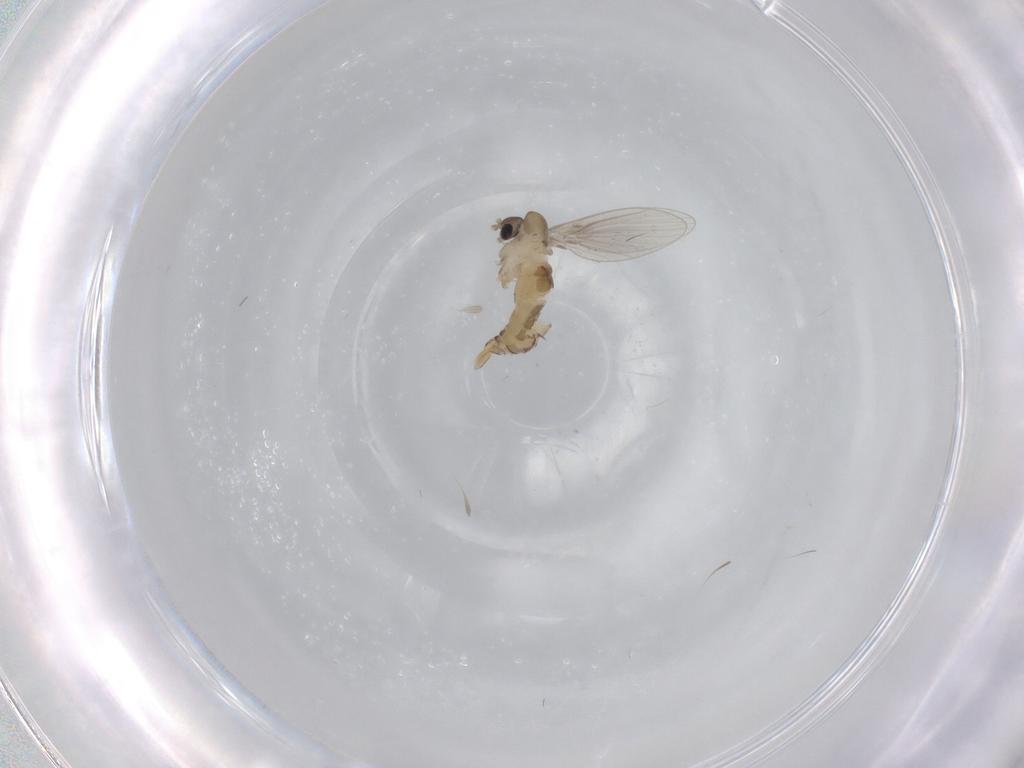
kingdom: Animalia
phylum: Arthropoda
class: Insecta
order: Diptera
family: Psychodidae
